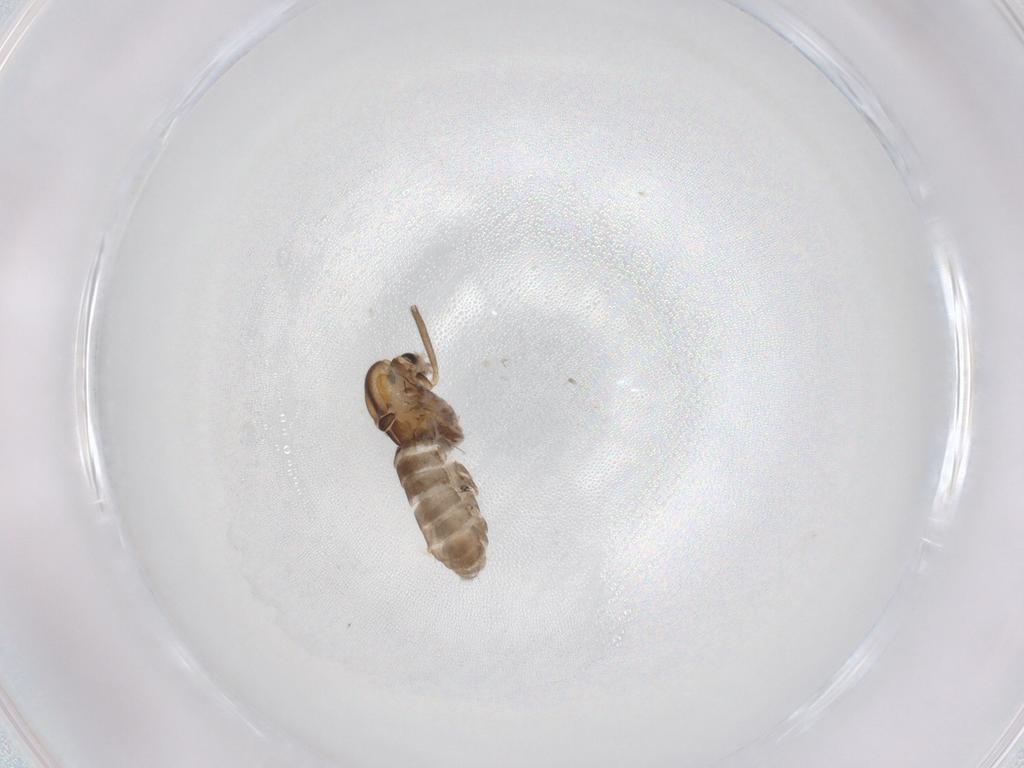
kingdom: Animalia
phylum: Arthropoda
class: Insecta
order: Diptera
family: Chironomidae
